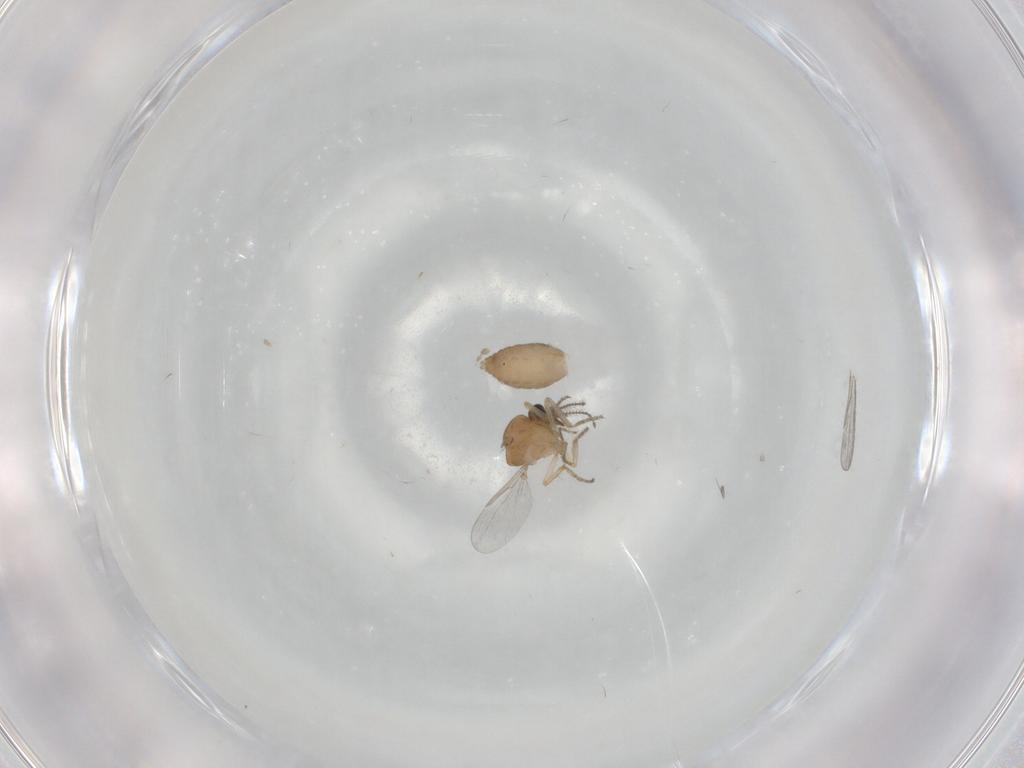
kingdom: Animalia
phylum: Arthropoda
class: Insecta
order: Diptera
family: Ceratopogonidae
